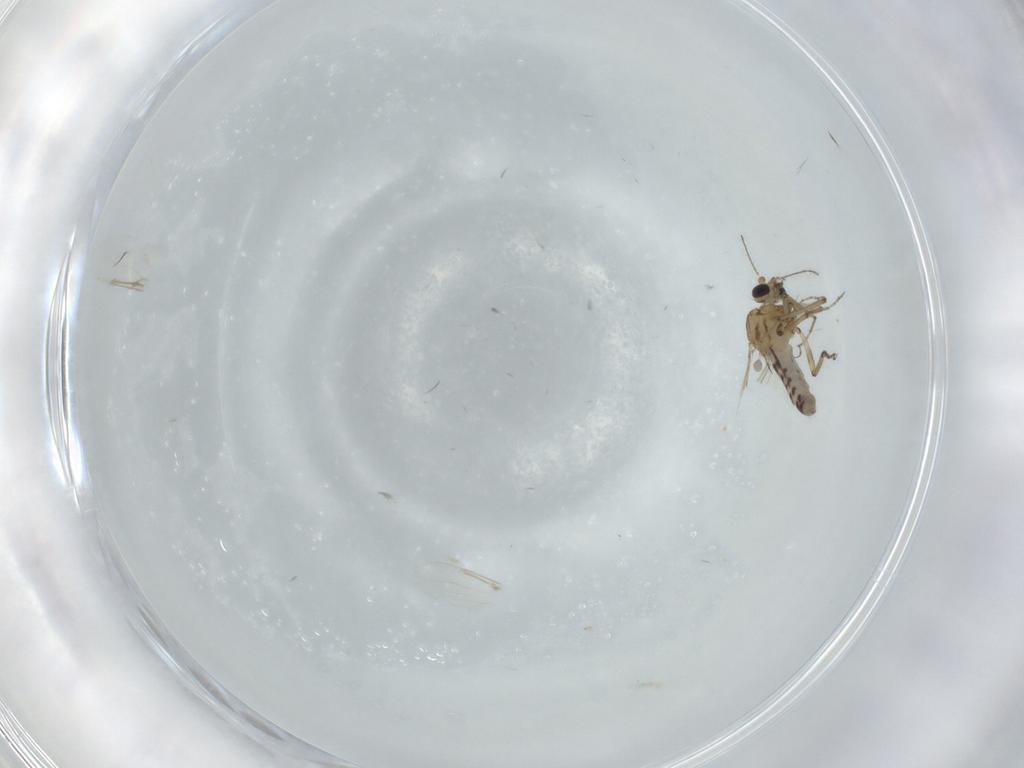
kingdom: Animalia
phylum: Arthropoda
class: Insecta
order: Diptera
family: Ceratopogonidae
